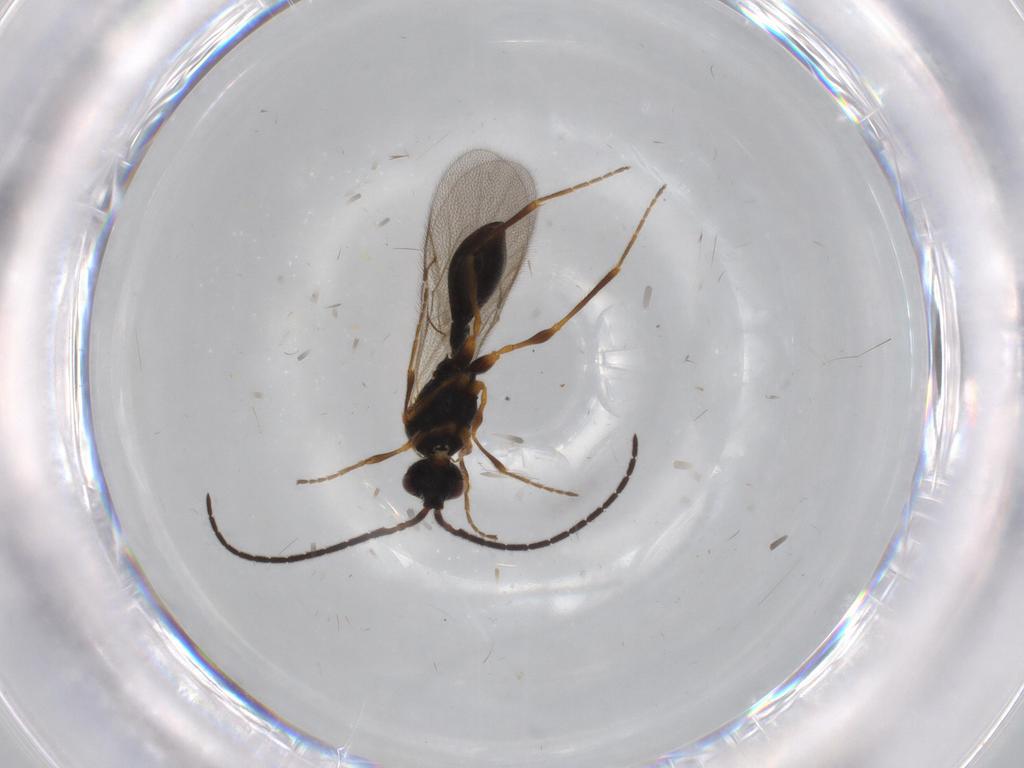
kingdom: Animalia
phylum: Arthropoda
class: Insecta
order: Hymenoptera
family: Diapriidae
